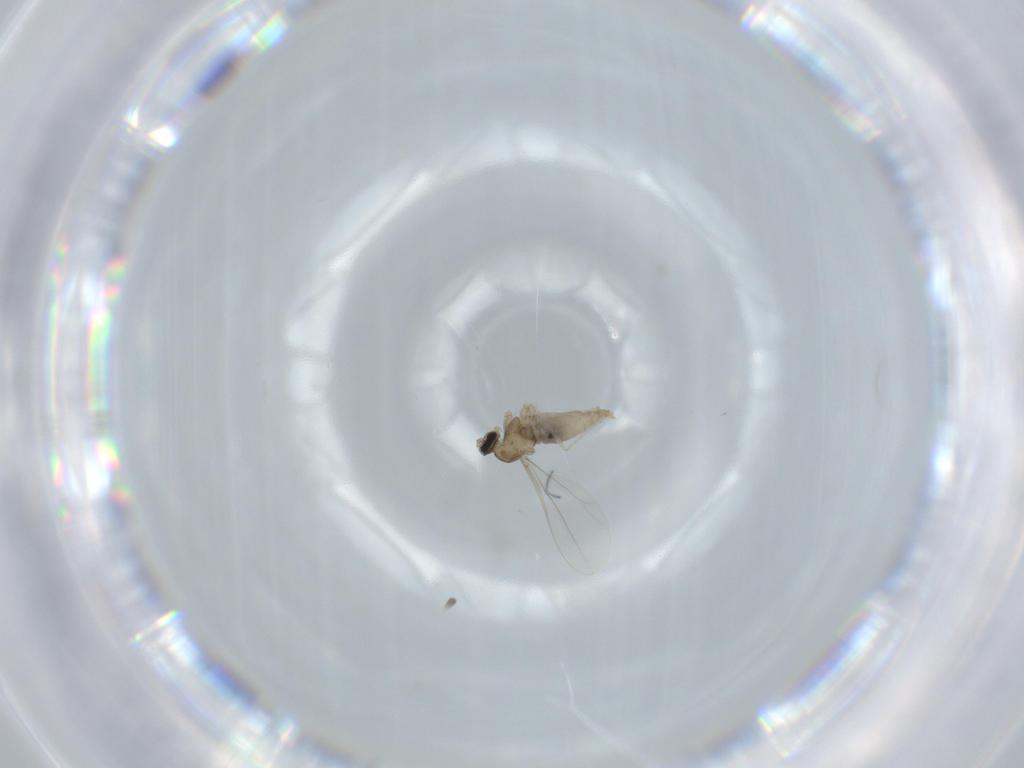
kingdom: Animalia
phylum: Arthropoda
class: Insecta
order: Diptera
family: Cecidomyiidae
